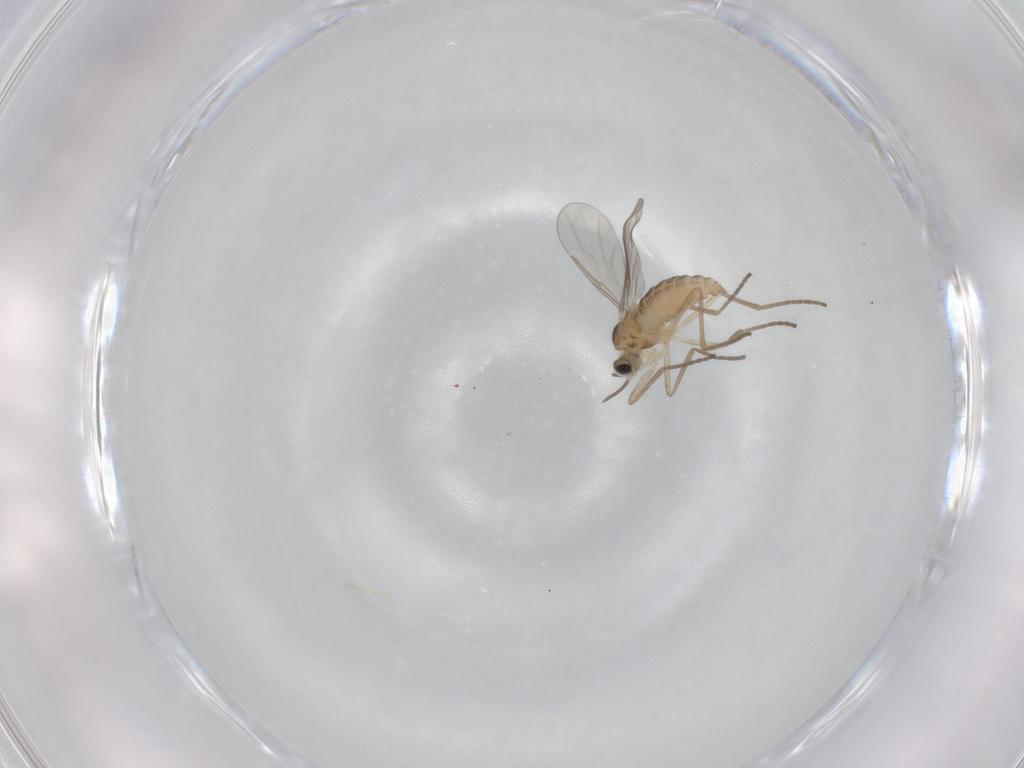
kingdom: Animalia
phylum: Arthropoda
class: Insecta
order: Diptera
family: Cecidomyiidae
